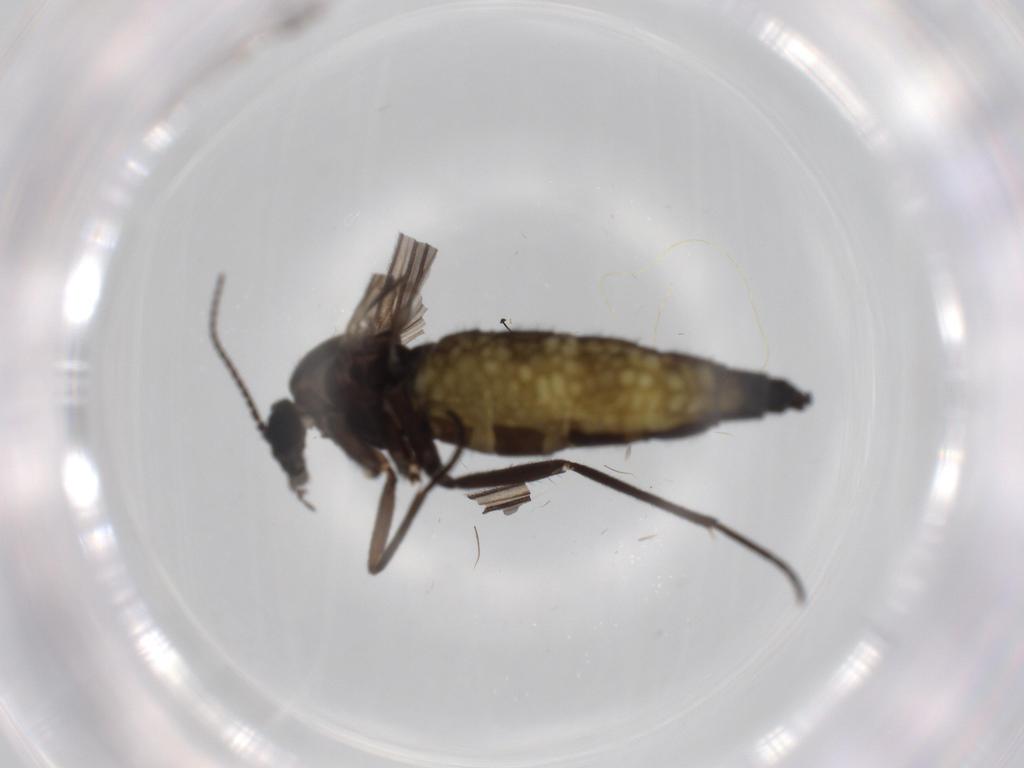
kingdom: Animalia
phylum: Arthropoda
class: Insecta
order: Diptera
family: Sciaridae
